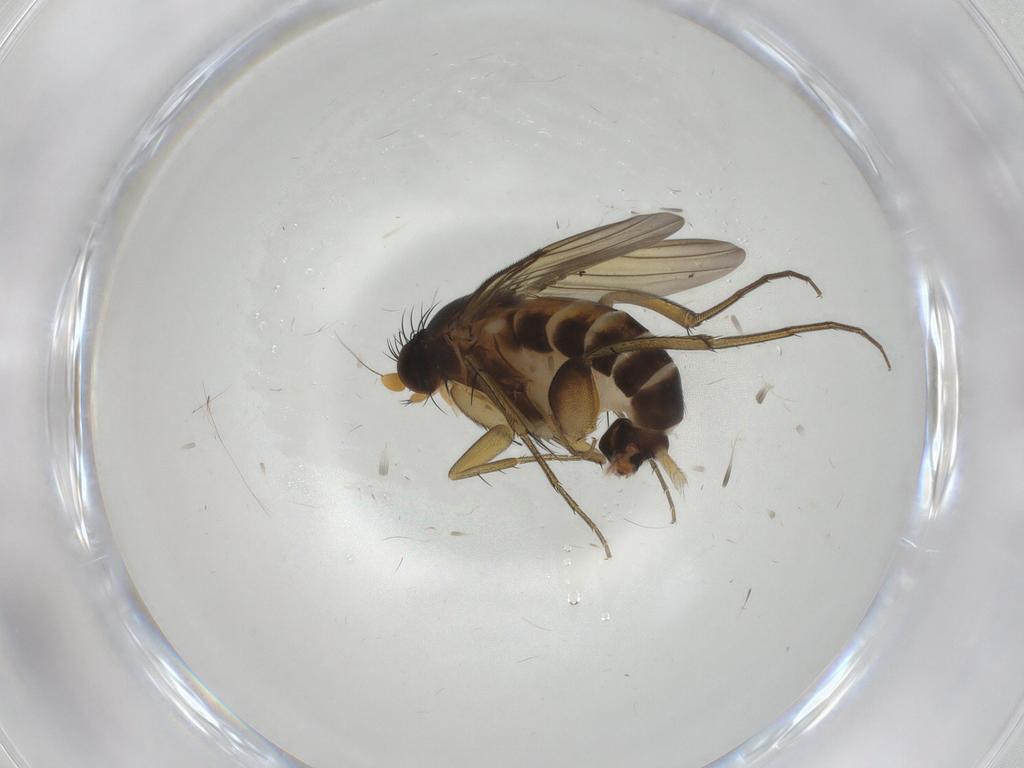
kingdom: Animalia
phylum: Arthropoda
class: Insecta
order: Diptera
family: Phoridae
